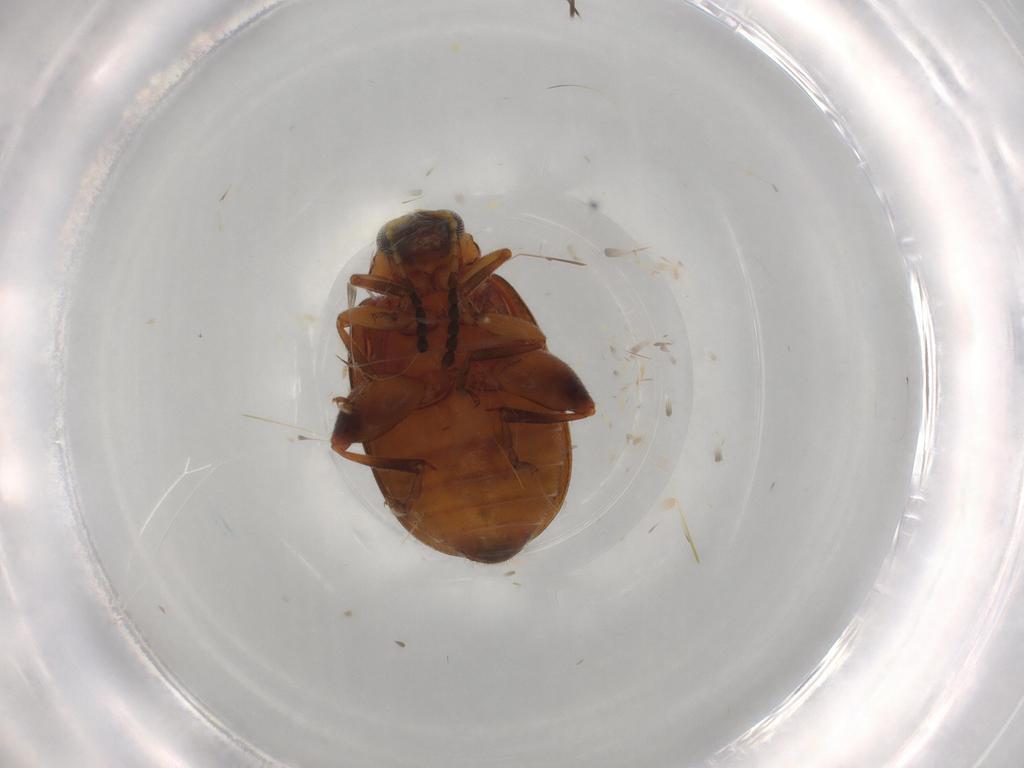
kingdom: Animalia
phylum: Arthropoda
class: Insecta
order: Coleoptera
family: Chrysomelidae
